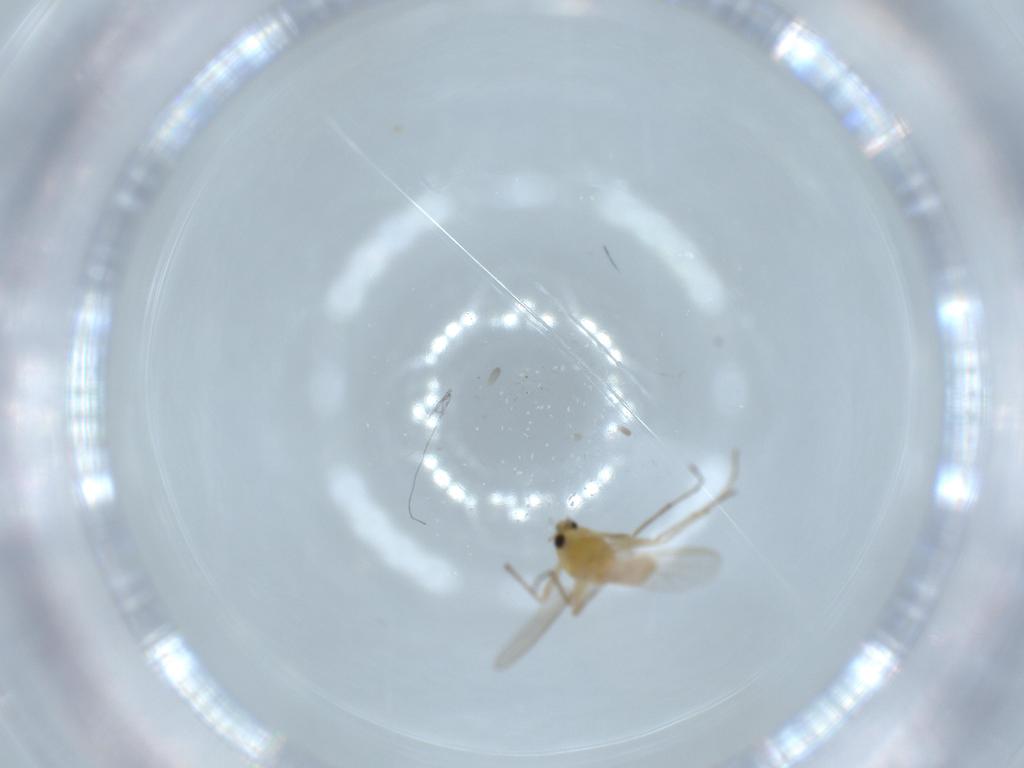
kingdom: Animalia
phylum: Arthropoda
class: Insecta
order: Diptera
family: Chironomidae
